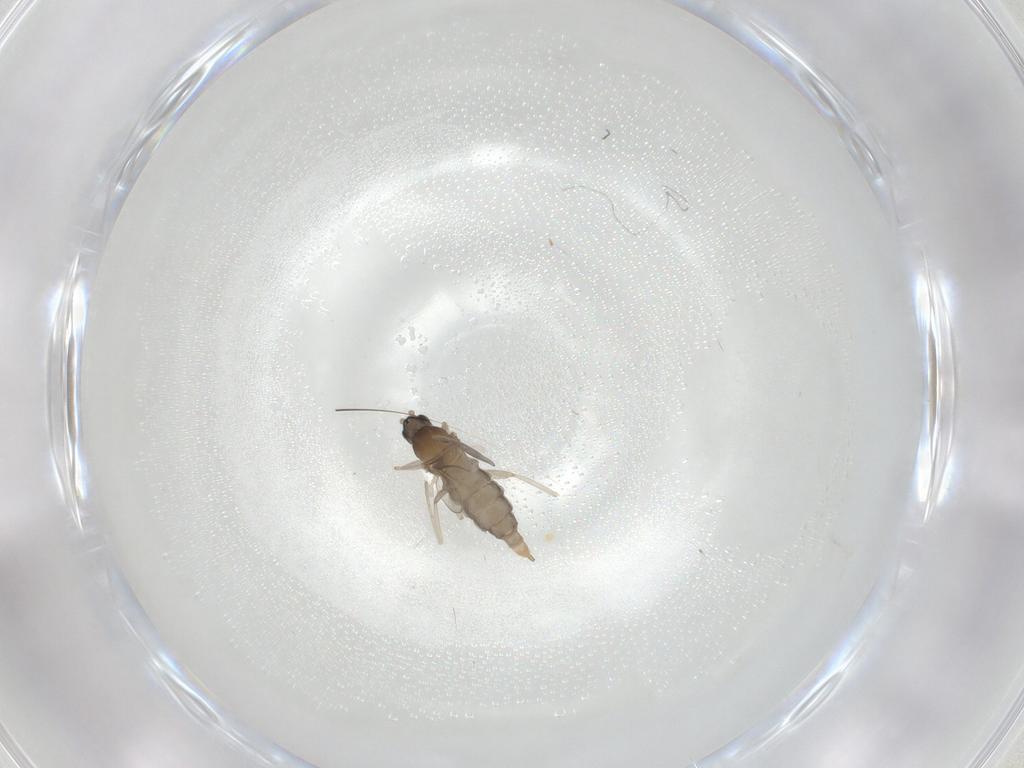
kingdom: Animalia
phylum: Arthropoda
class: Insecta
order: Diptera
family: Cecidomyiidae
